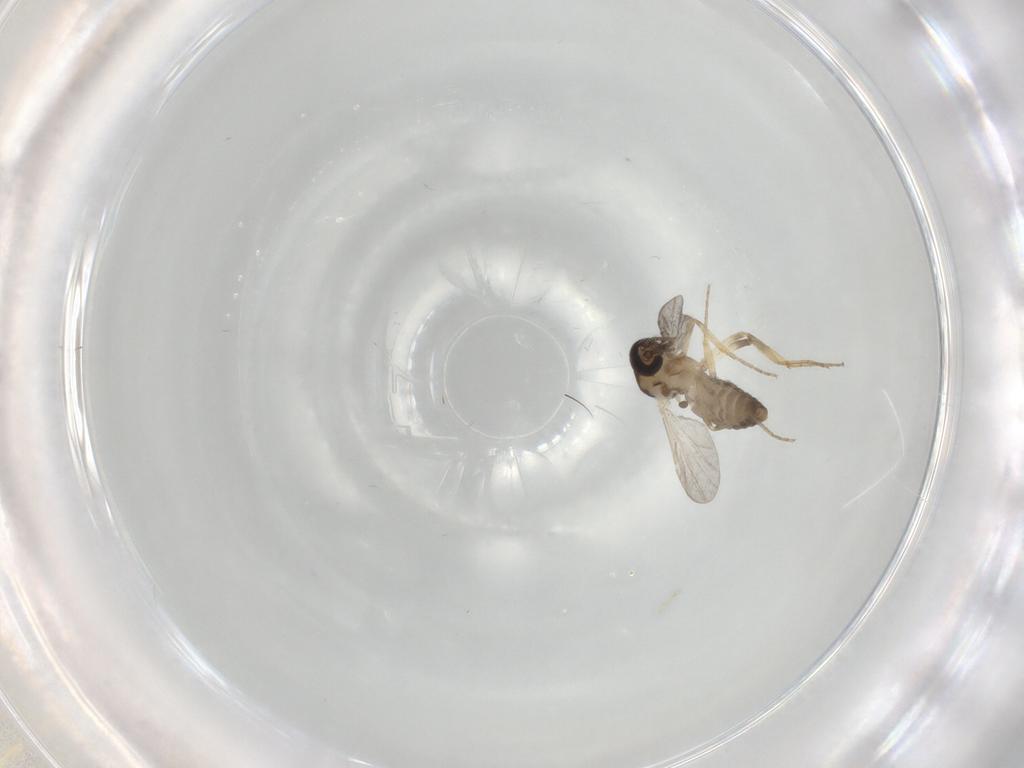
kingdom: Animalia
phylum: Arthropoda
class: Insecta
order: Diptera
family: Ceratopogonidae
